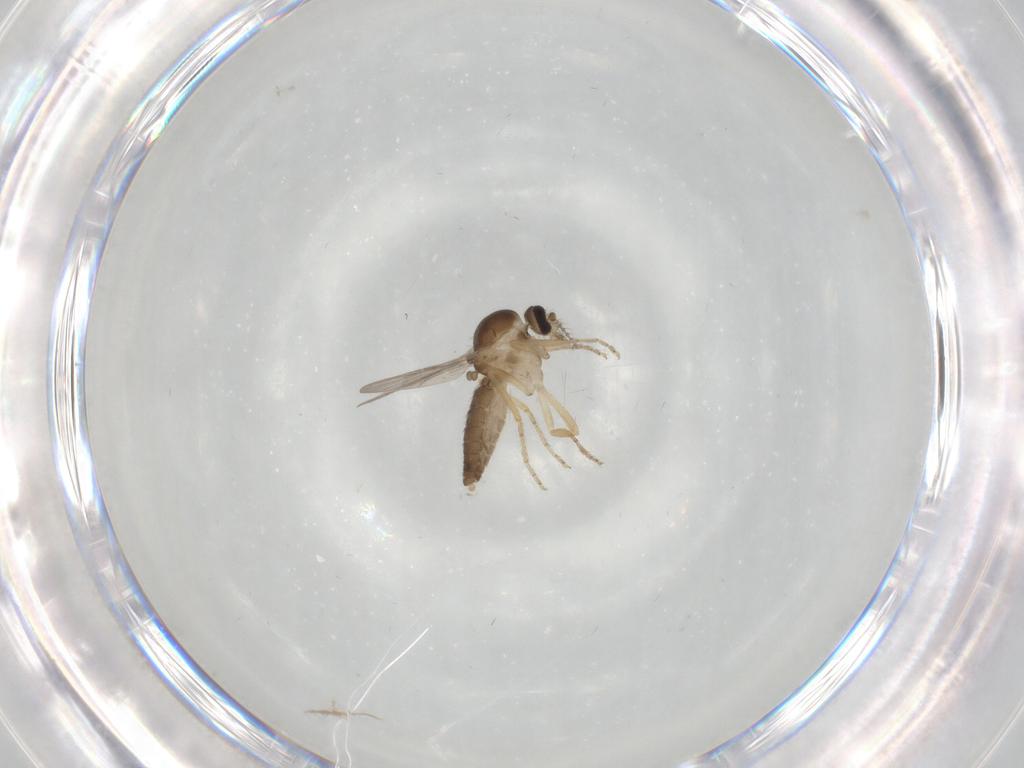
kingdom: Animalia
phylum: Arthropoda
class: Insecta
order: Diptera
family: Ceratopogonidae
